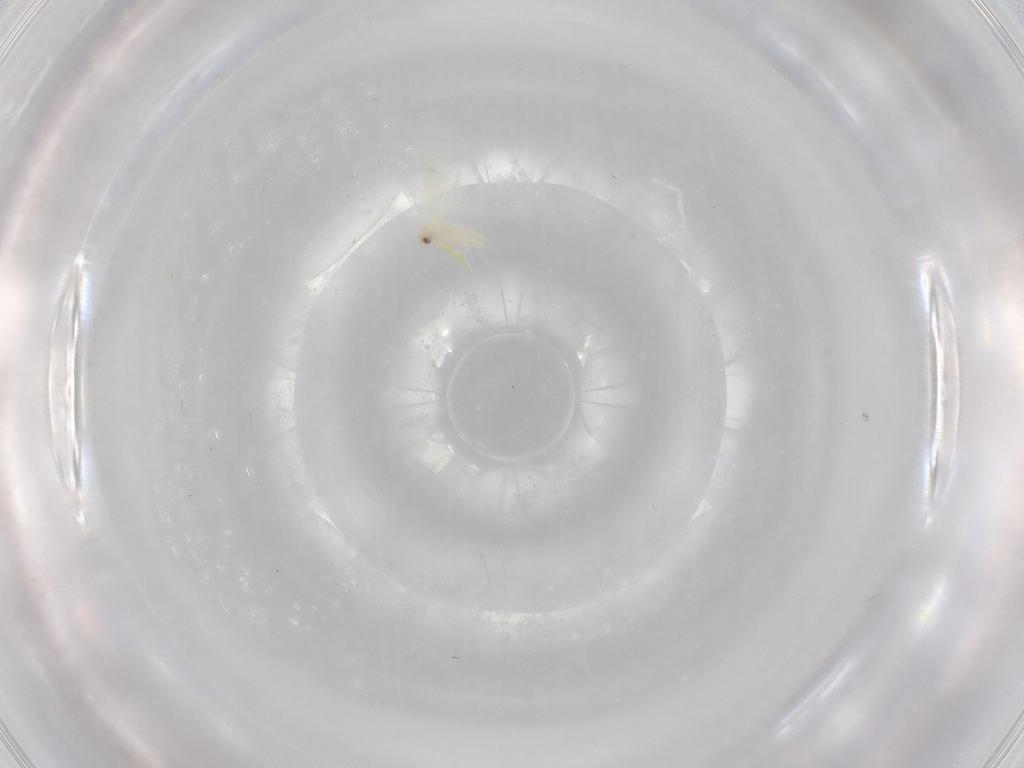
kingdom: Animalia
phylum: Arthropoda
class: Insecta
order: Hemiptera
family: Aleyrodidae
